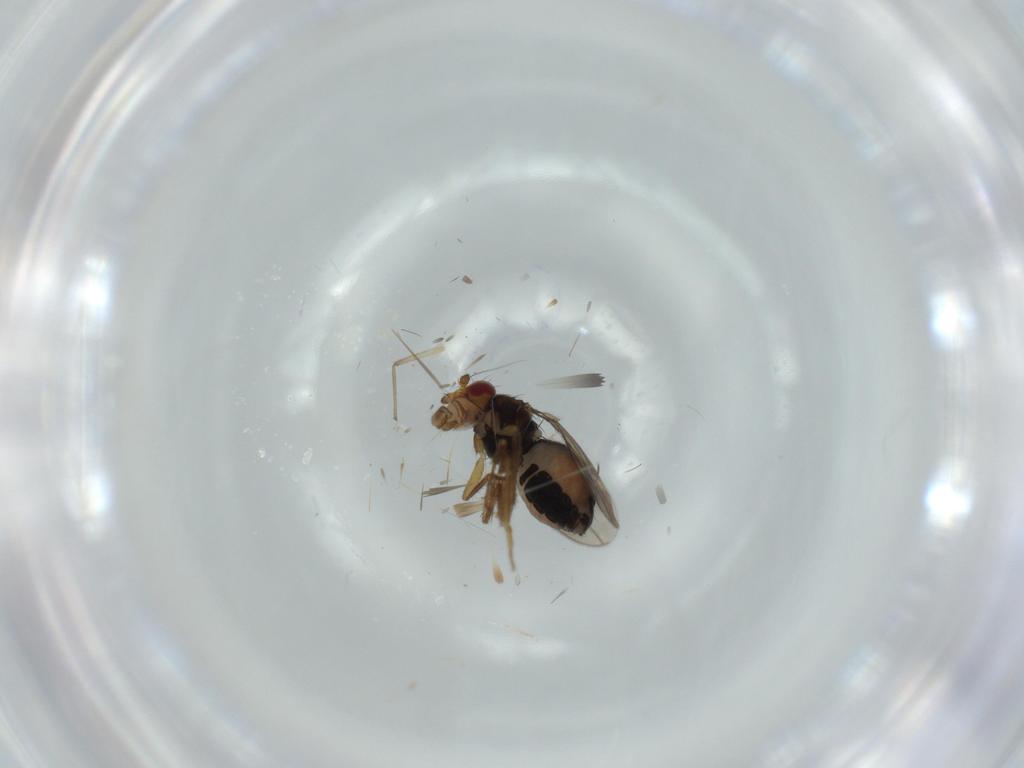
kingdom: Animalia
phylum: Arthropoda
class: Insecta
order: Diptera
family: Sphaeroceridae
